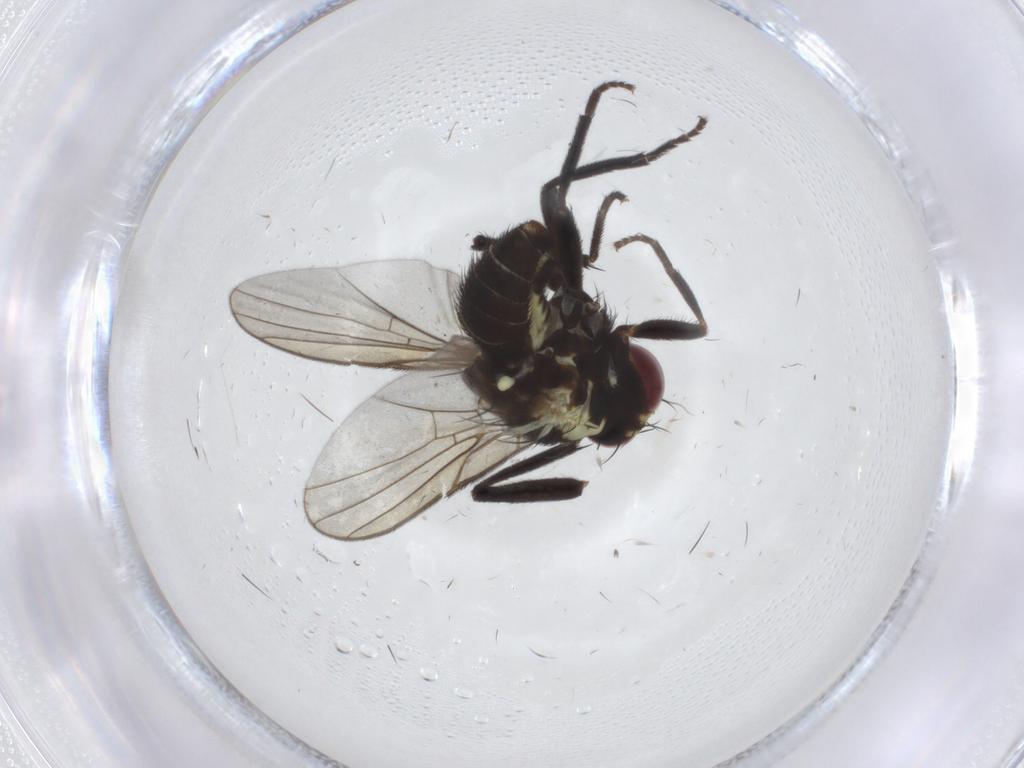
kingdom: Animalia
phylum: Arthropoda
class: Insecta
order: Diptera
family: Agromyzidae
